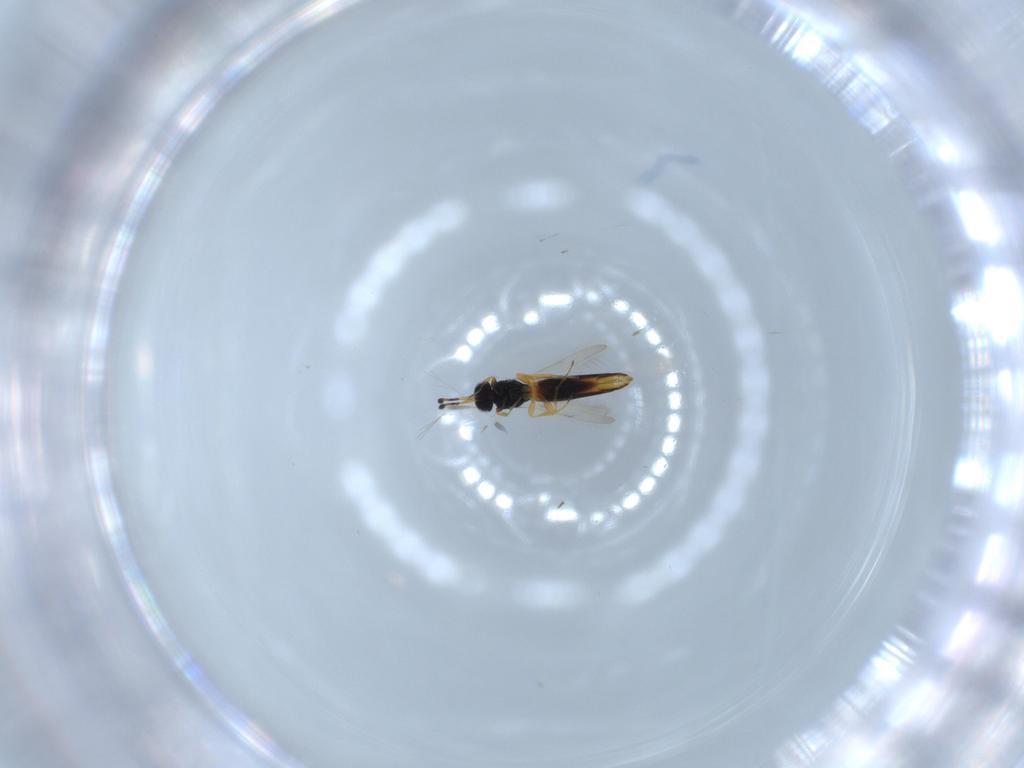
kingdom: Animalia
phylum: Arthropoda
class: Insecta
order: Hymenoptera
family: Scelionidae
